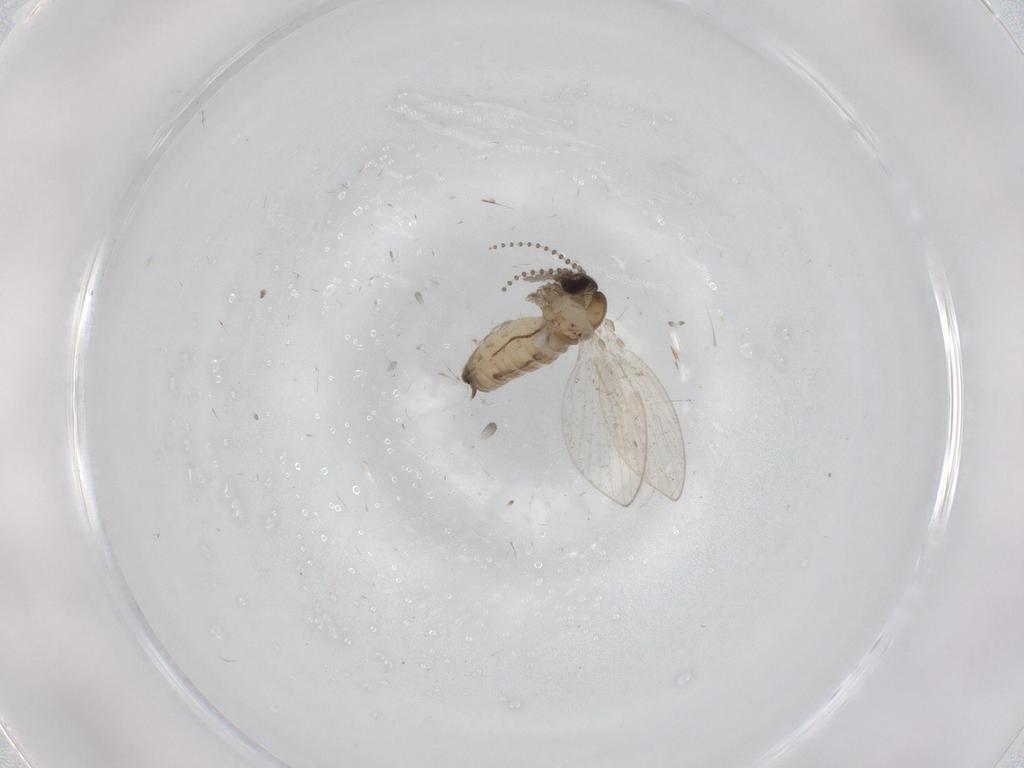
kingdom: Animalia
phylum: Arthropoda
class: Insecta
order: Diptera
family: Psychodidae
